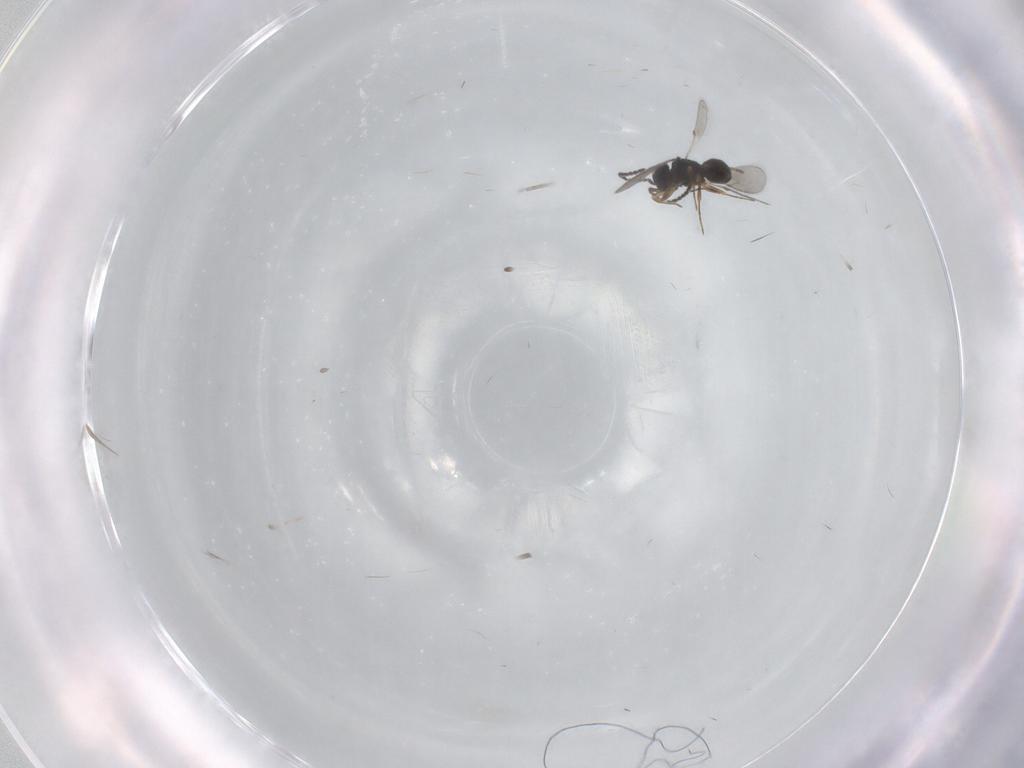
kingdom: Animalia
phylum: Arthropoda
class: Insecta
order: Hymenoptera
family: Scelionidae
